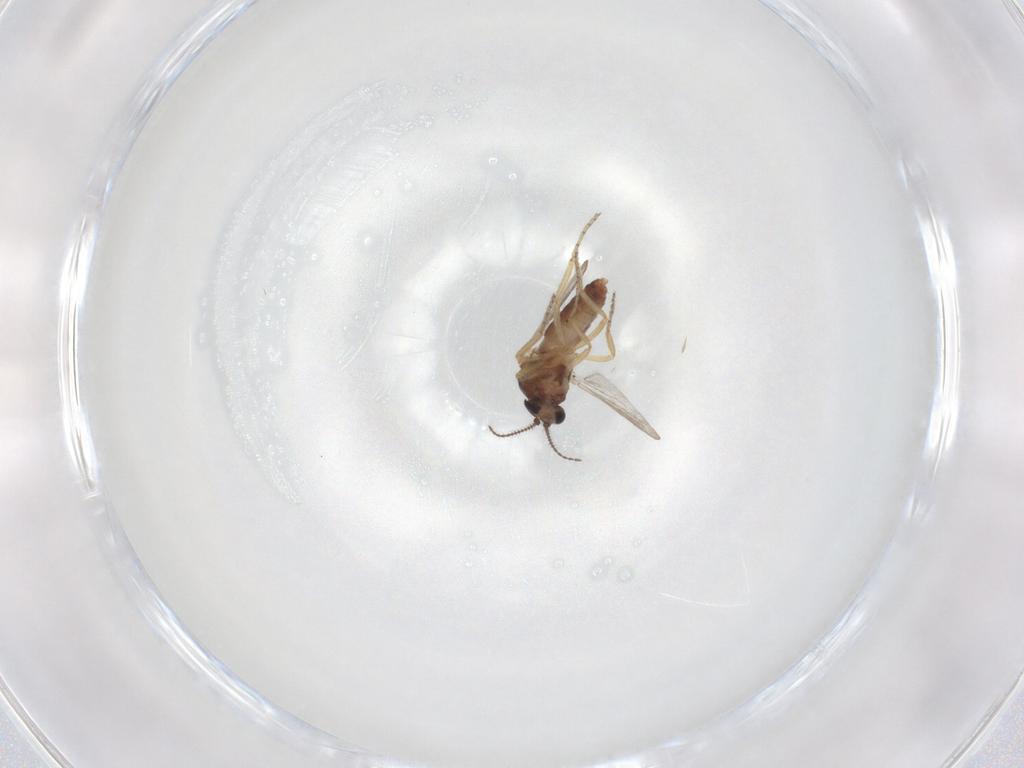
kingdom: Animalia
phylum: Arthropoda
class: Insecta
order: Diptera
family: Ceratopogonidae
